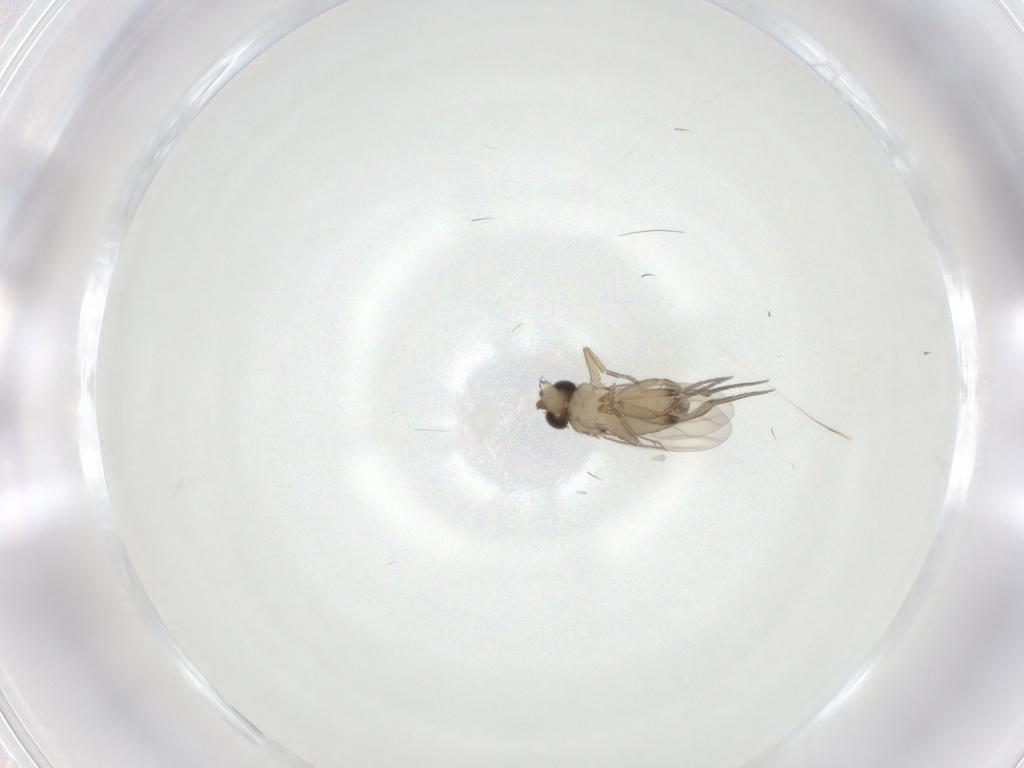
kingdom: Animalia
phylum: Arthropoda
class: Insecta
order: Diptera
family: Phoridae
